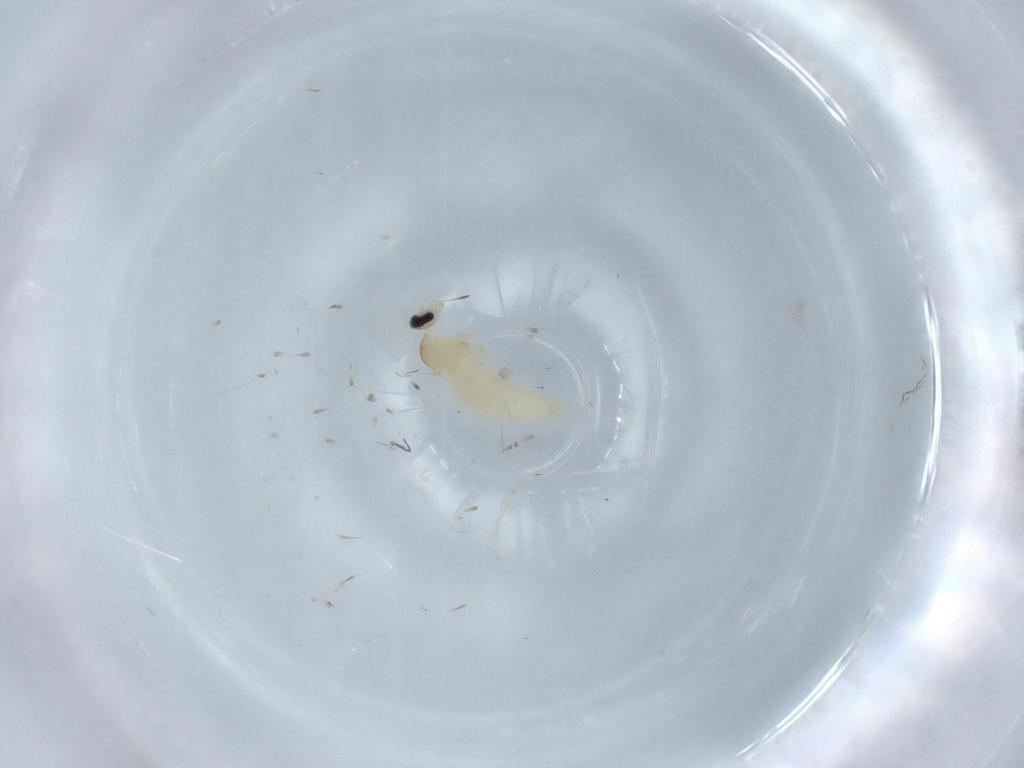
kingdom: Animalia
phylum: Arthropoda
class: Insecta
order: Diptera
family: Cecidomyiidae
